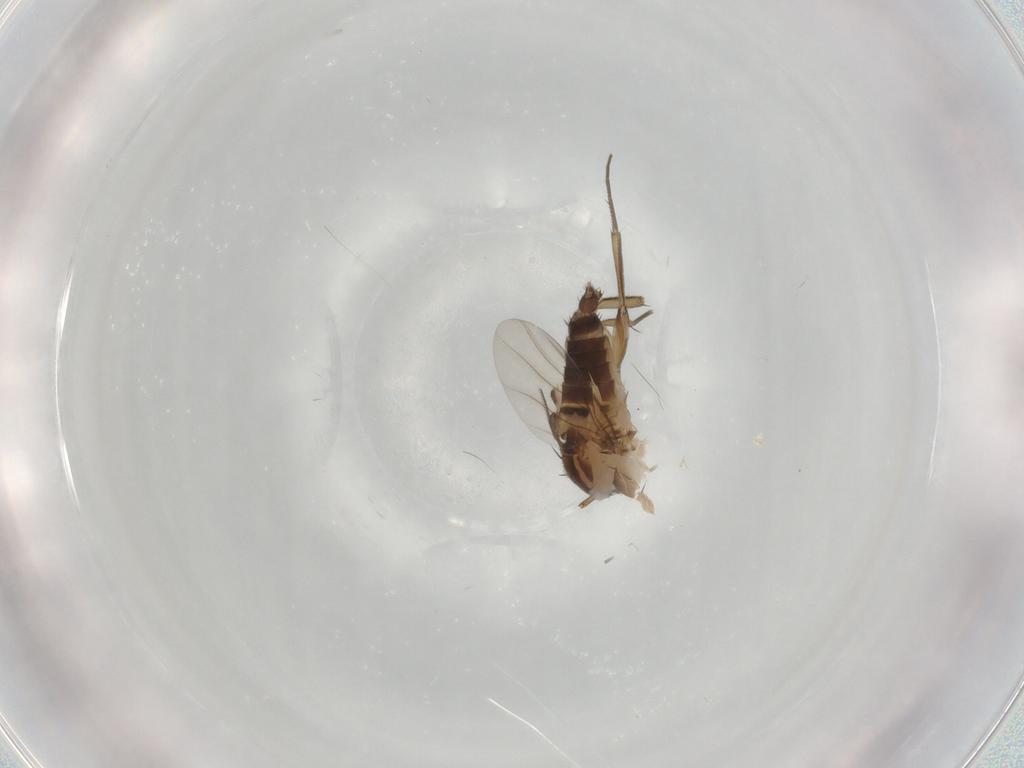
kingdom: Animalia
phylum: Arthropoda
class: Insecta
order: Diptera
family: Phoridae
